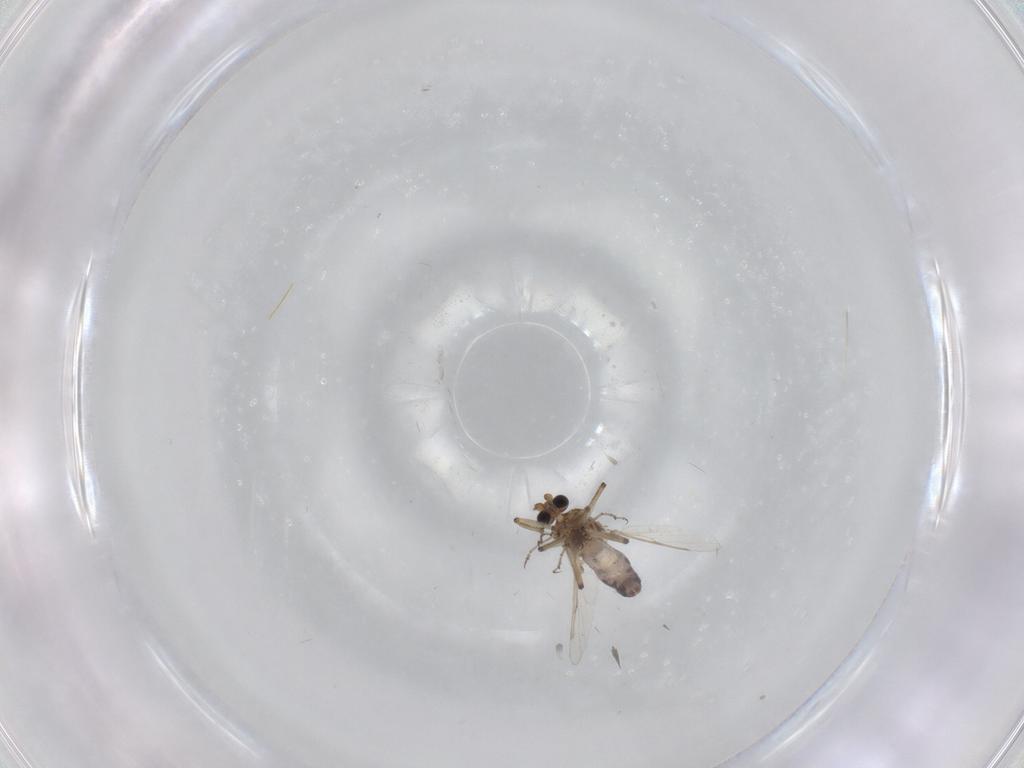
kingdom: Animalia
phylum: Arthropoda
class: Insecta
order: Diptera
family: Ceratopogonidae
